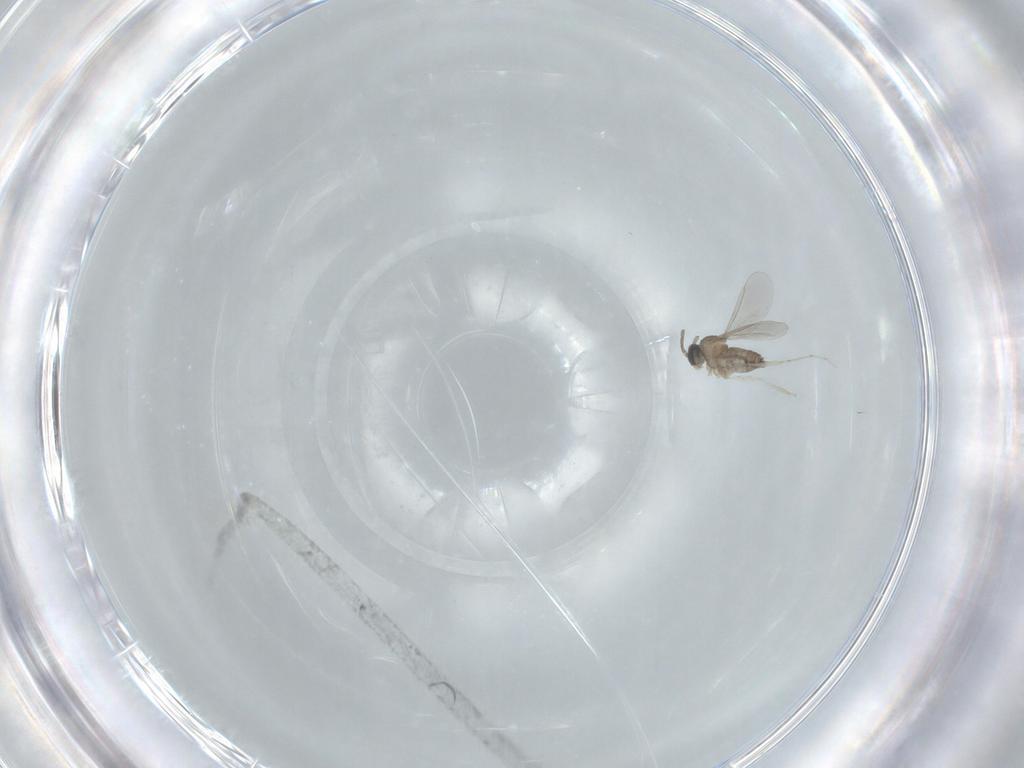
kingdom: Animalia
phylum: Arthropoda
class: Insecta
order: Diptera
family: Cecidomyiidae
